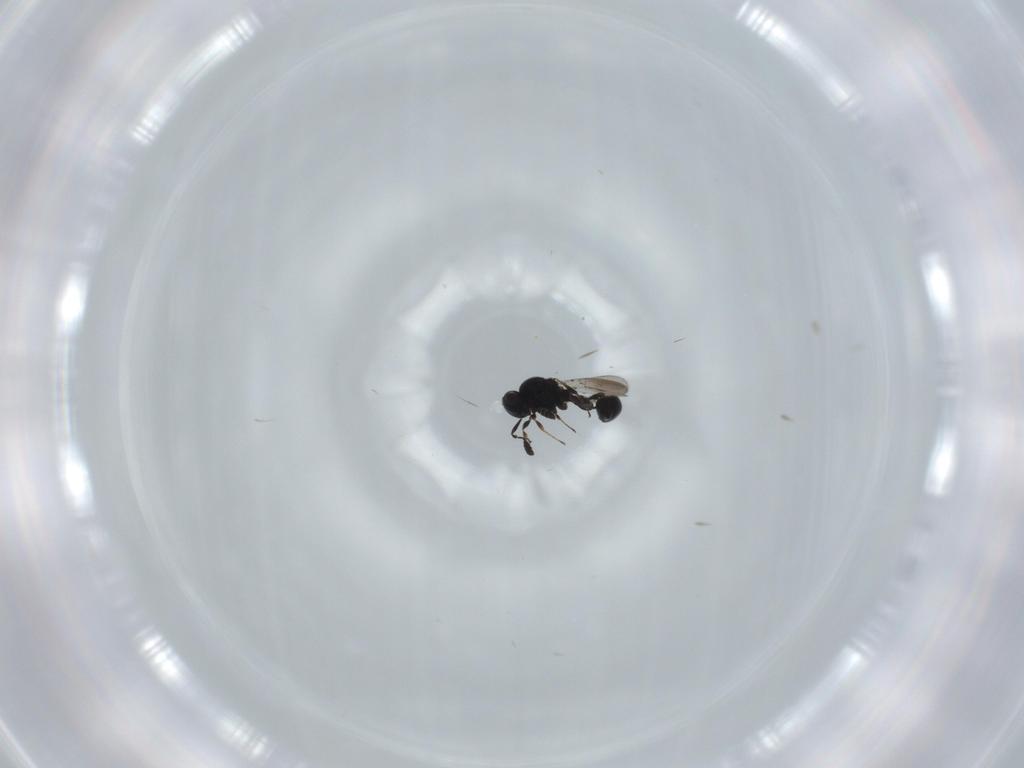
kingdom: Animalia
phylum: Arthropoda
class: Insecta
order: Hymenoptera
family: Platygastridae
